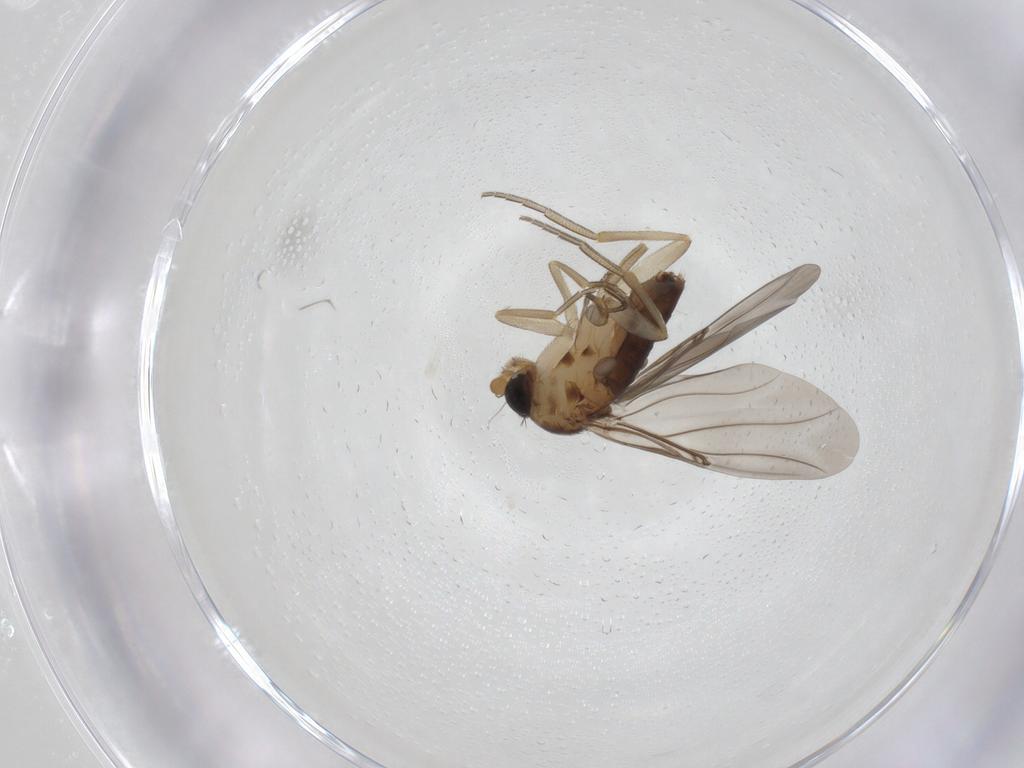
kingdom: Animalia
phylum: Arthropoda
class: Insecta
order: Diptera
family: Phoridae
